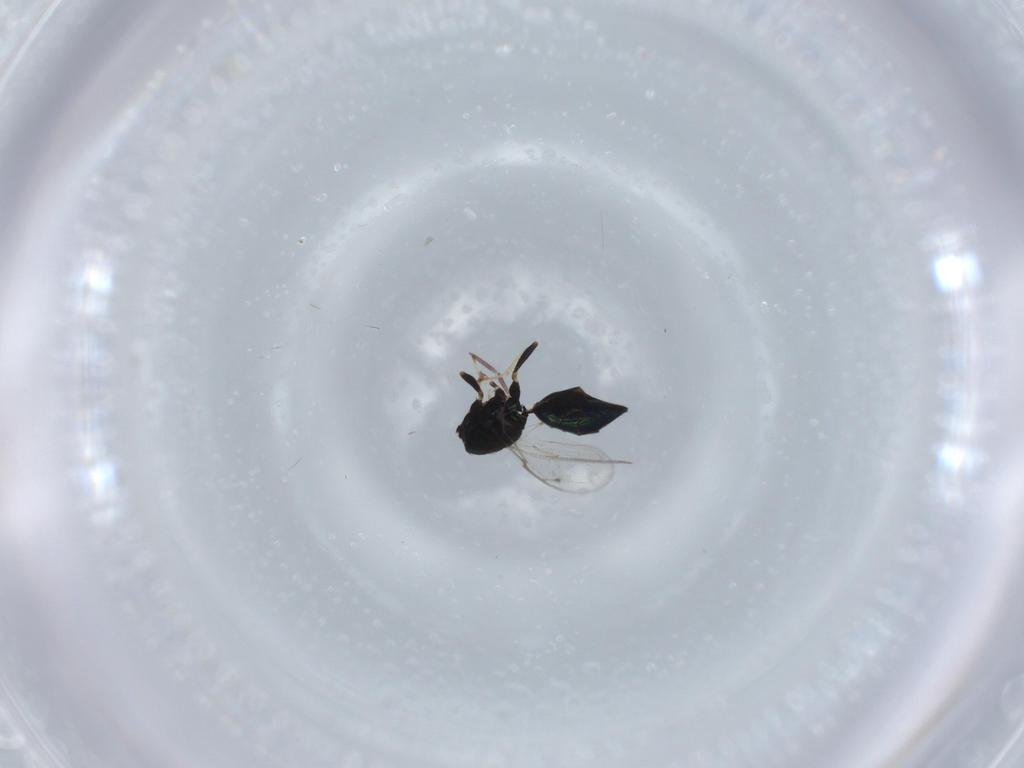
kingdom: Animalia
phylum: Arthropoda
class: Insecta
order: Hymenoptera
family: Pteromalidae
